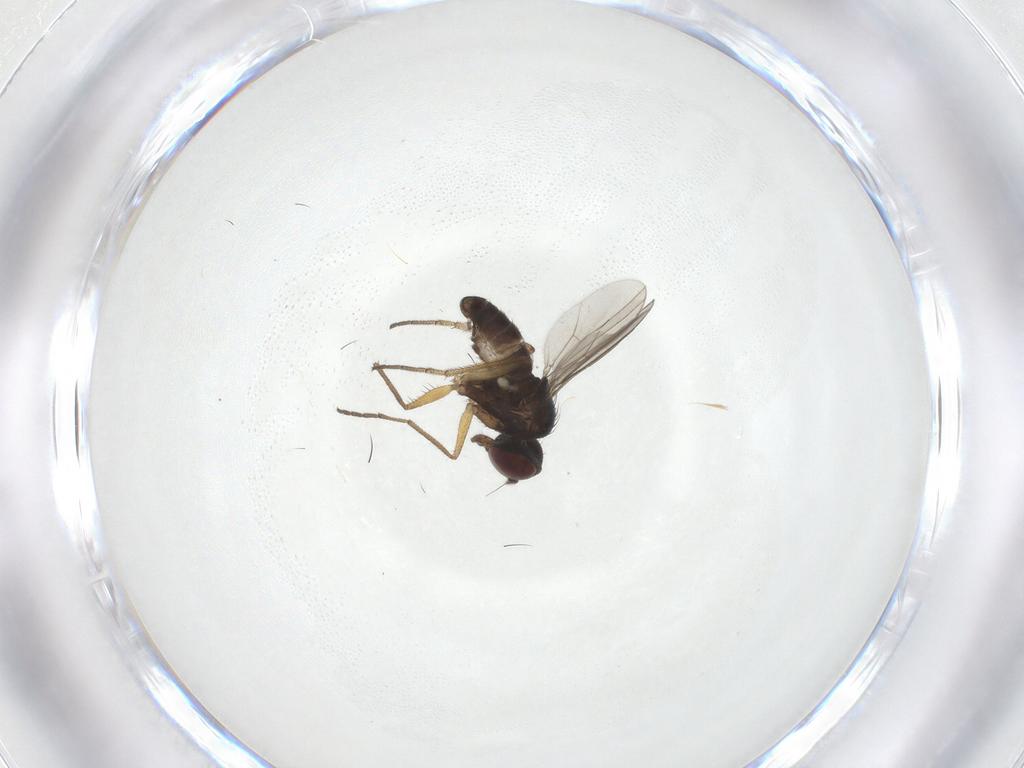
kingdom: Animalia
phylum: Arthropoda
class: Insecta
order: Diptera
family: Dolichopodidae
